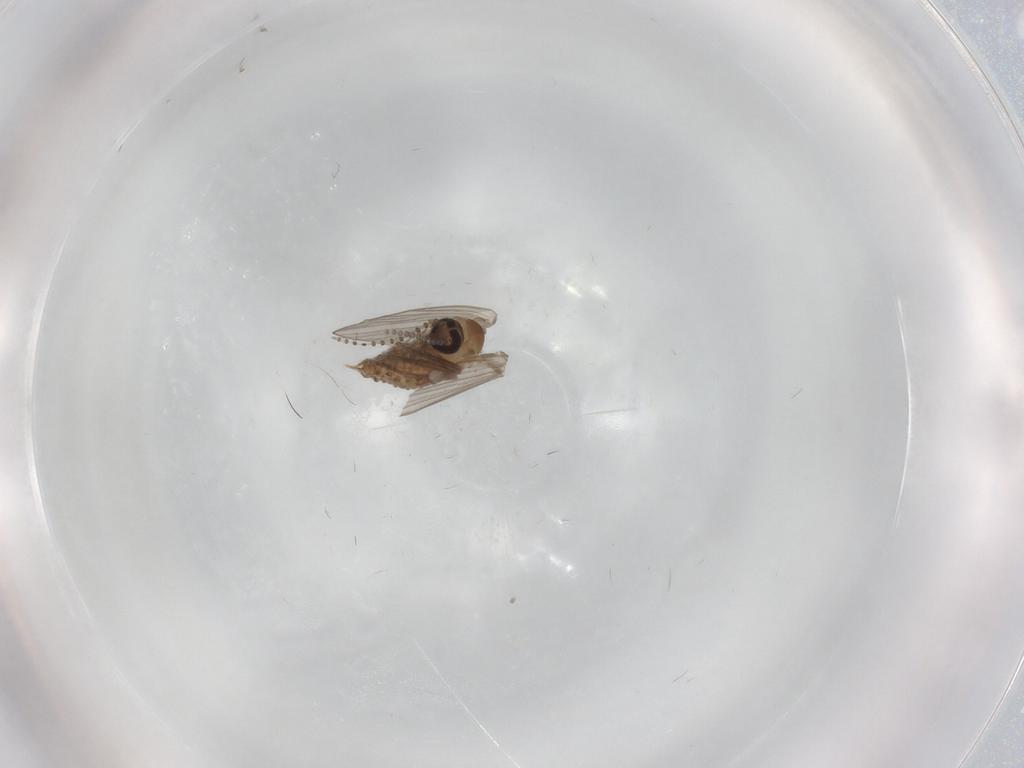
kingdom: Animalia
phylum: Arthropoda
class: Insecta
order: Diptera
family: Psychodidae
